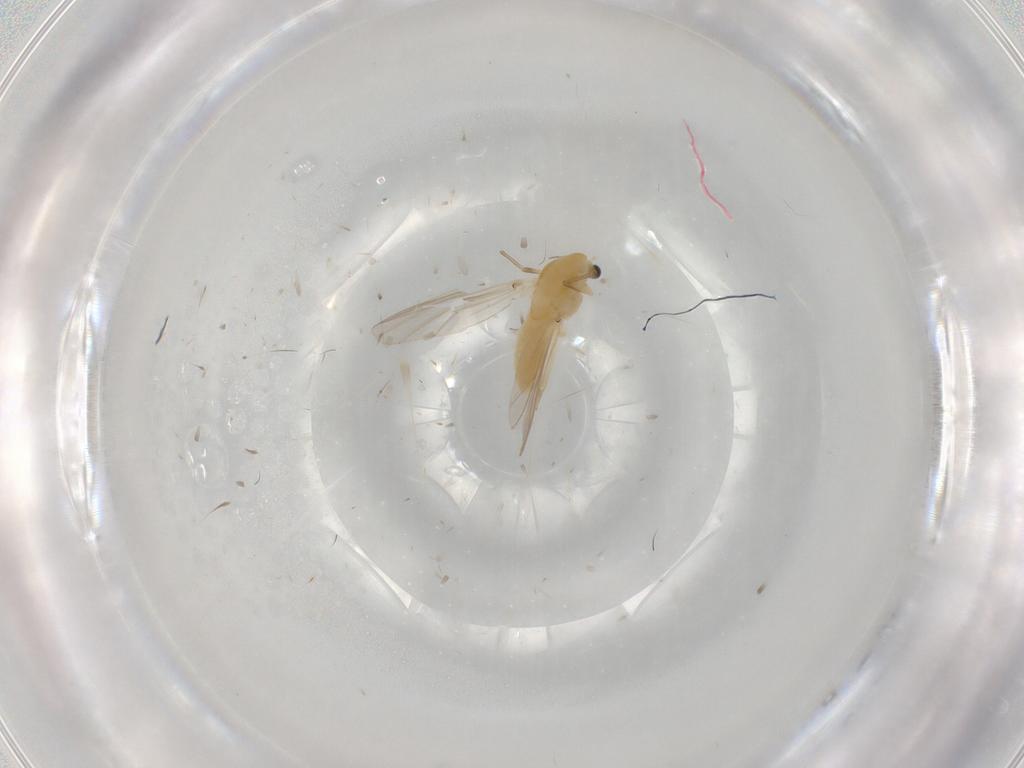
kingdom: Animalia
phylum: Arthropoda
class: Insecta
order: Diptera
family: Chironomidae
